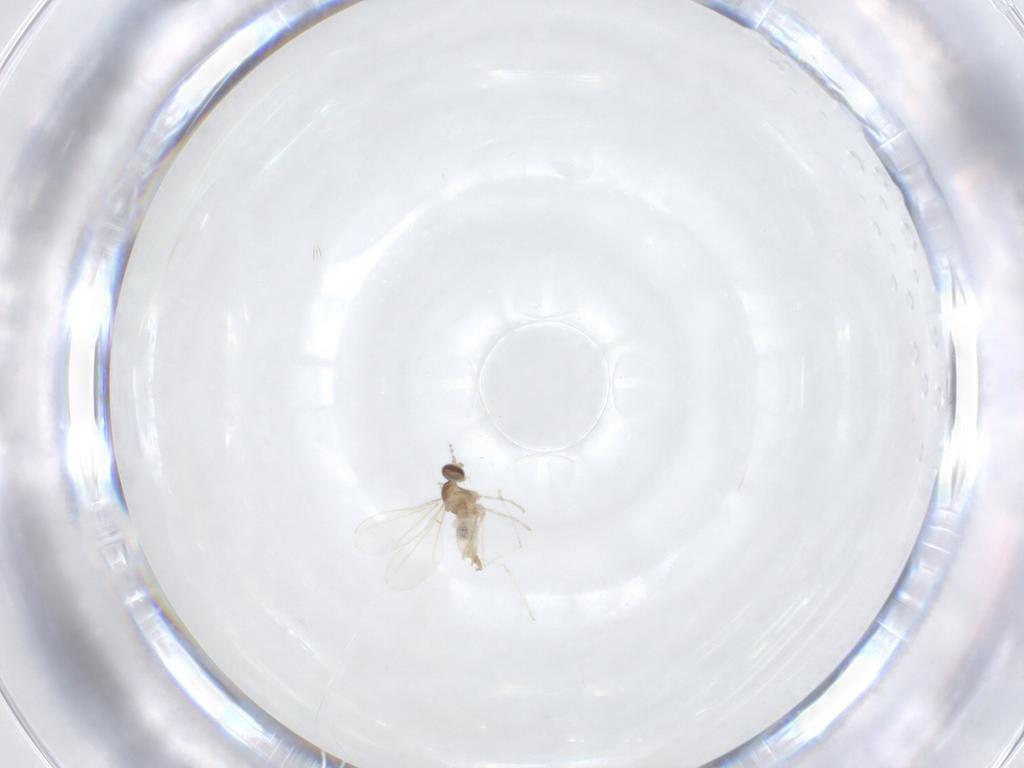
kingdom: Animalia
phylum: Arthropoda
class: Insecta
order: Diptera
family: Cecidomyiidae
